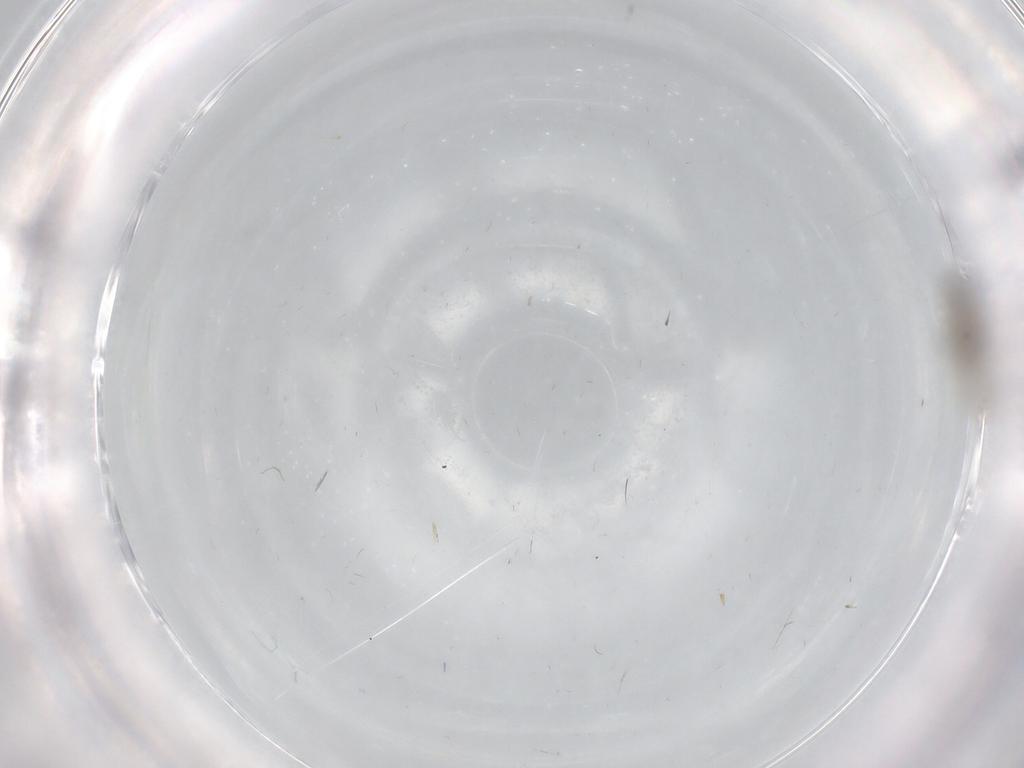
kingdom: Animalia
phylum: Arthropoda
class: Insecta
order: Diptera
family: Cecidomyiidae
